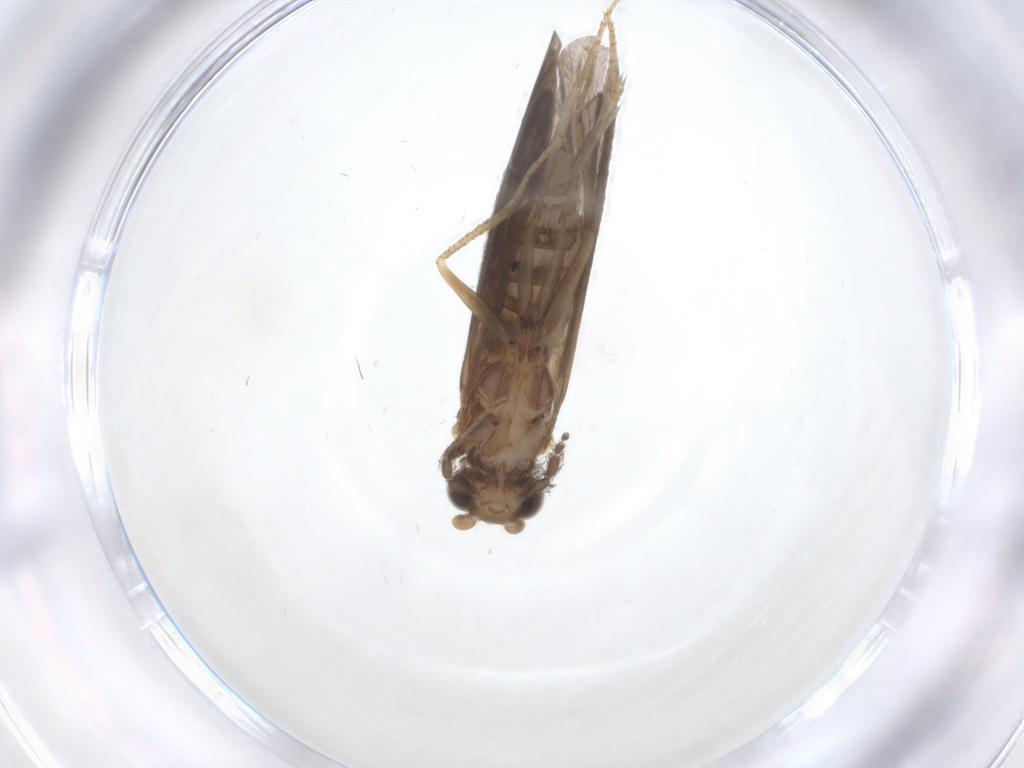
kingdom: Animalia
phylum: Arthropoda
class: Insecta
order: Trichoptera
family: Helicopsychidae
